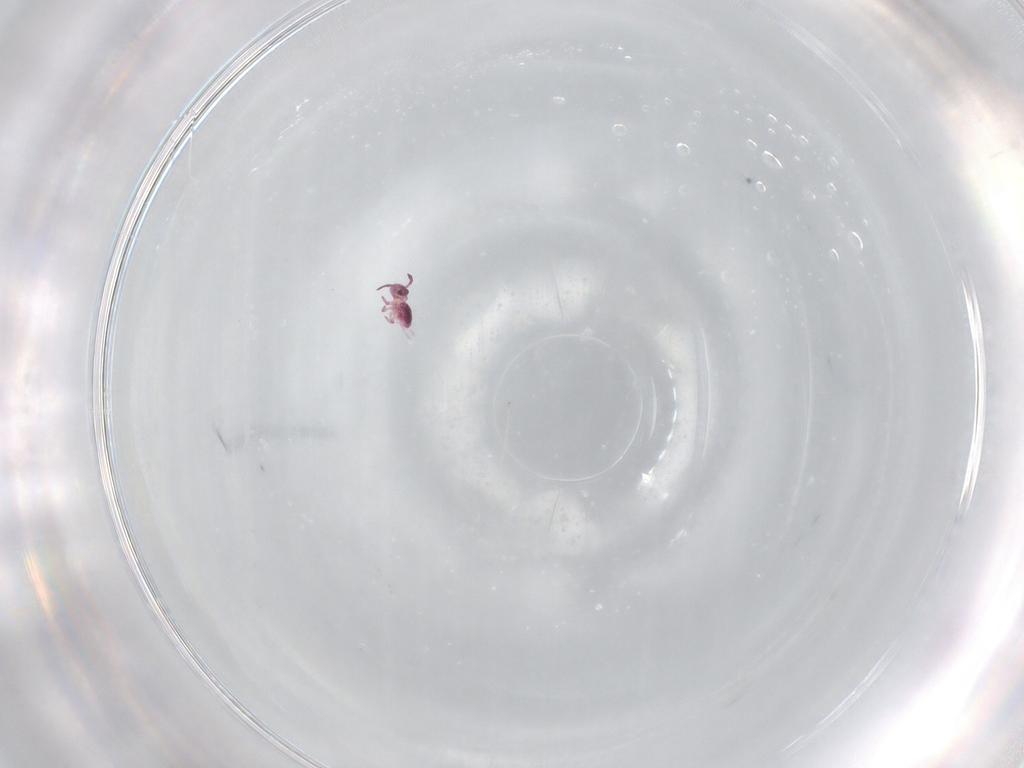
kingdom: Animalia
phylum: Arthropoda
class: Collembola
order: Symphypleona
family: Sminthurididae
